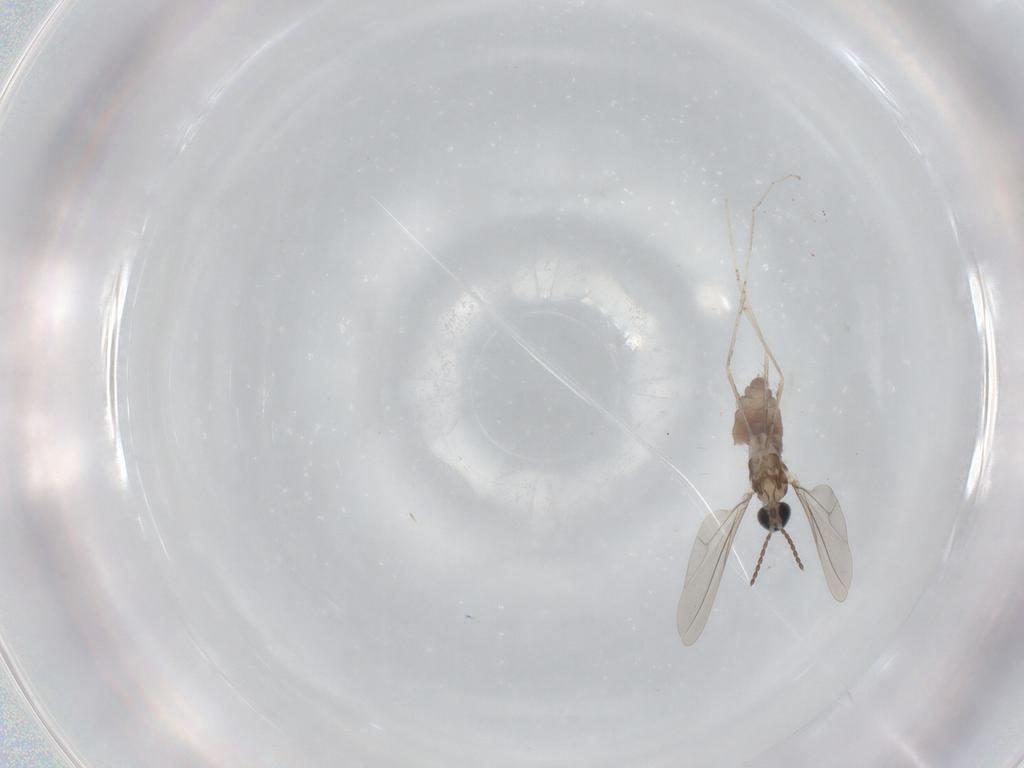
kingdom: Animalia
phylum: Arthropoda
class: Insecta
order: Diptera
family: Cecidomyiidae
